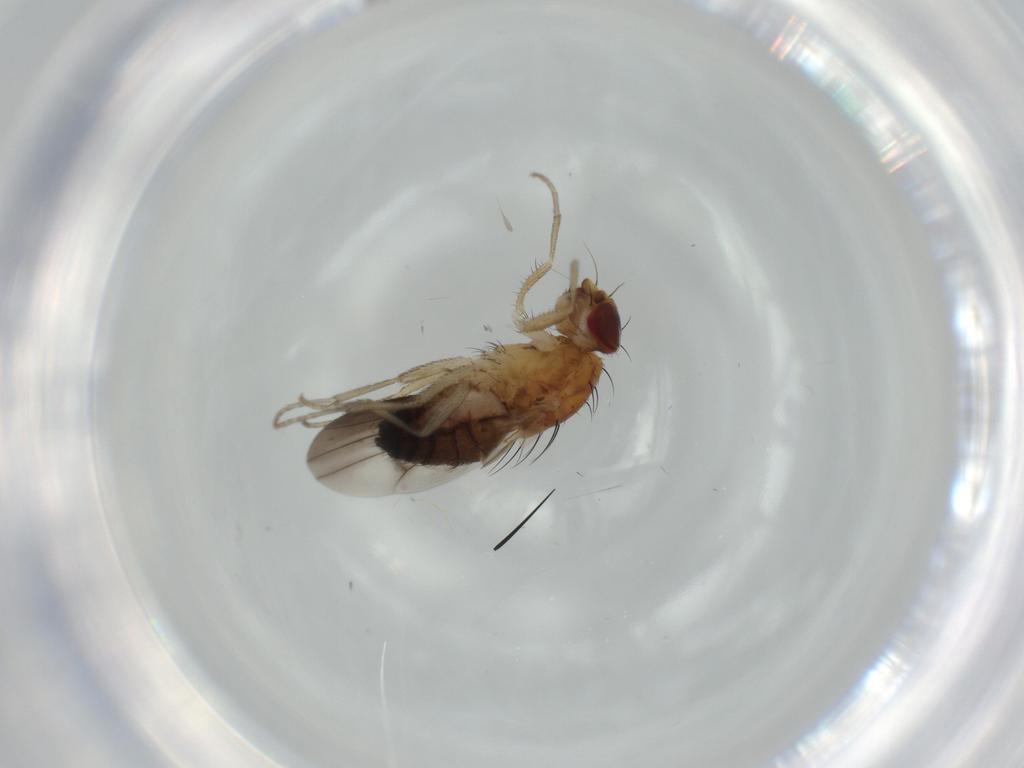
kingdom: Animalia
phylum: Arthropoda
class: Insecta
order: Diptera
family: Heleomyzidae
